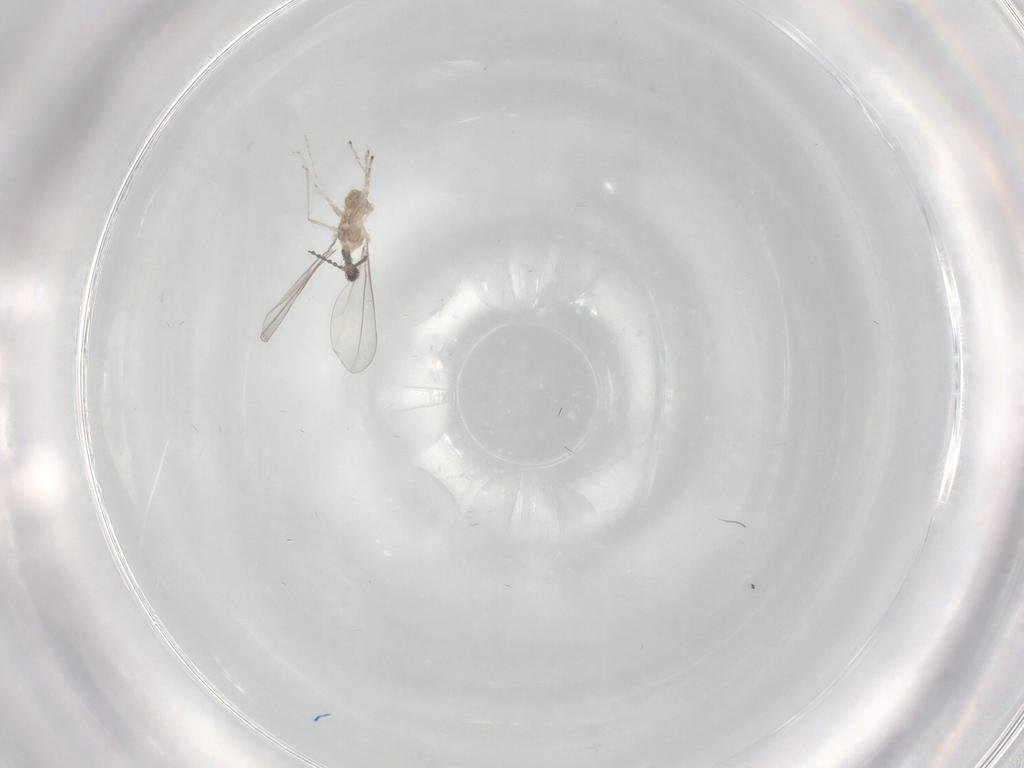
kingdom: Animalia
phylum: Arthropoda
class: Insecta
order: Diptera
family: Cecidomyiidae
